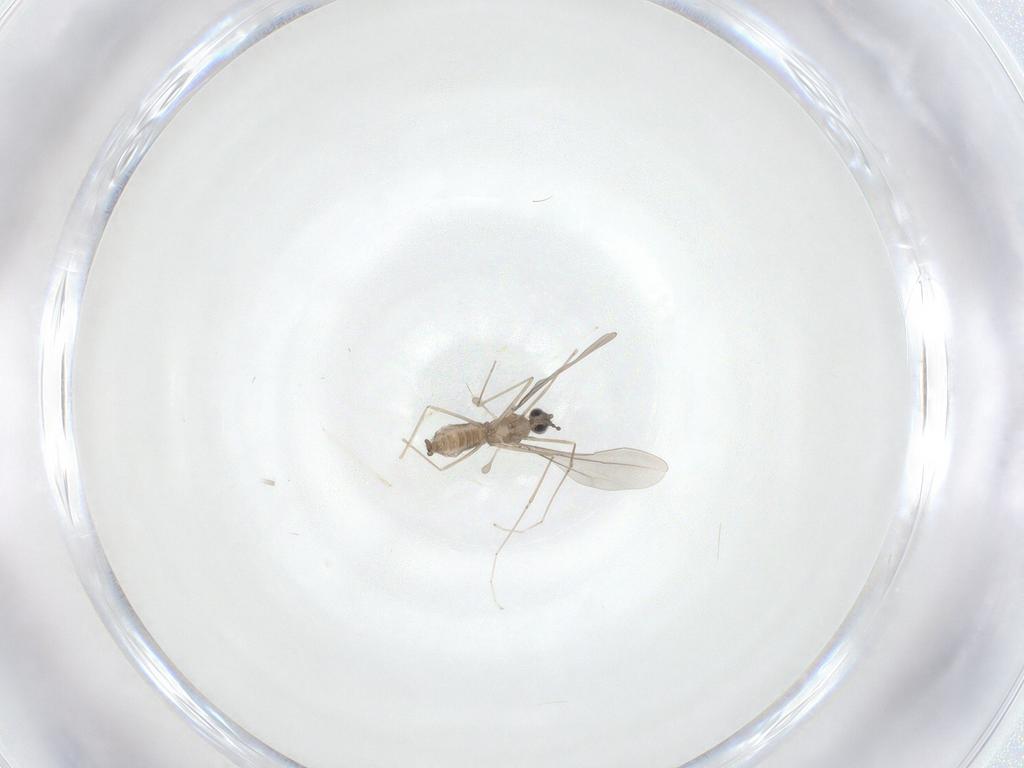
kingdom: Animalia
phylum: Arthropoda
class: Insecta
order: Diptera
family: Cecidomyiidae
